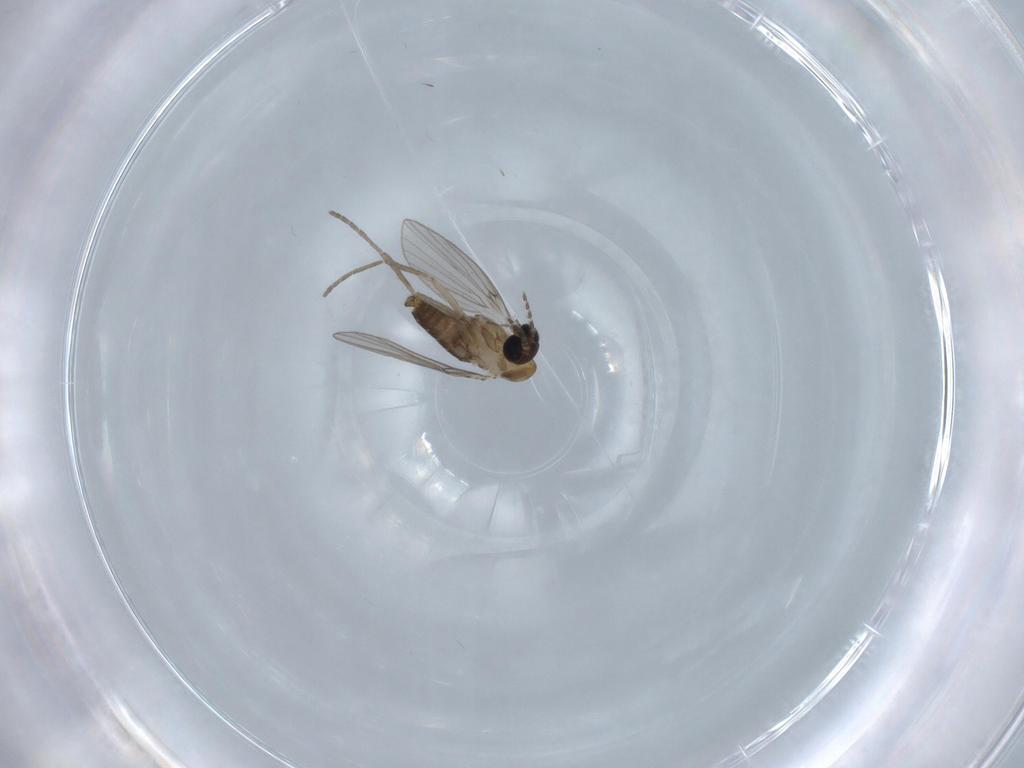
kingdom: Animalia
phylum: Arthropoda
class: Insecta
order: Diptera
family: Psychodidae
